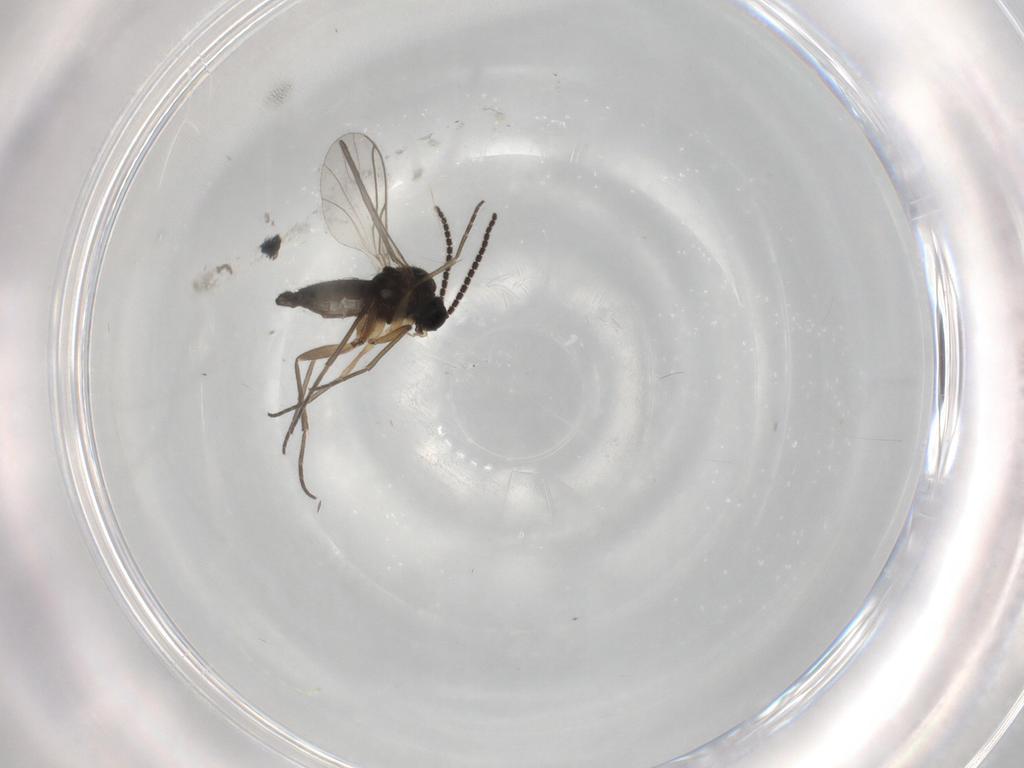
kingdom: Animalia
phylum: Arthropoda
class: Insecta
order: Diptera
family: Sciaridae
